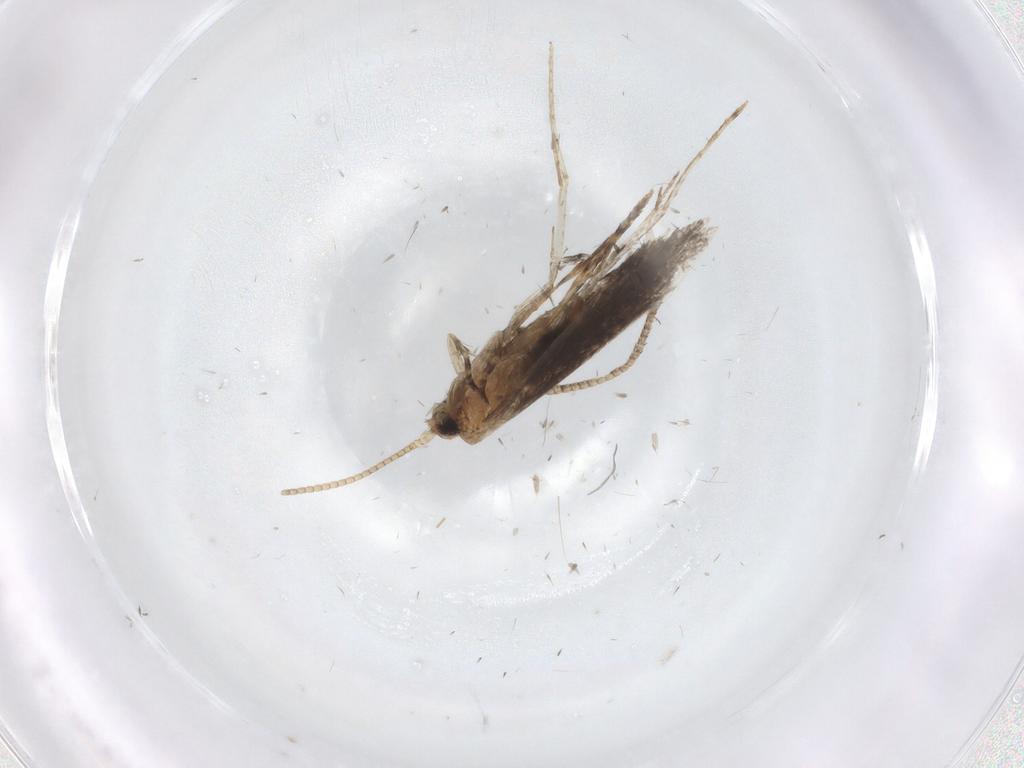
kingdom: Animalia
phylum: Arthropoda
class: Insecta
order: Lepidoptera
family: Tineidae
